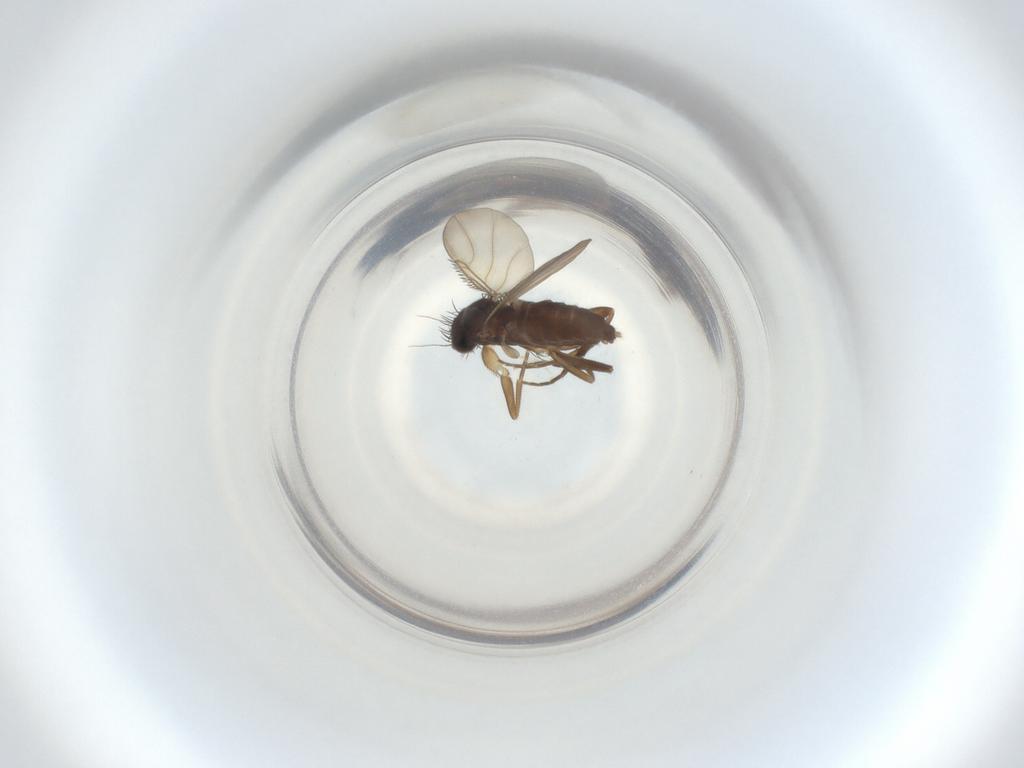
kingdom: Animalia
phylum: Arthropoda
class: Insecta
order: Diptera
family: Phoridae
